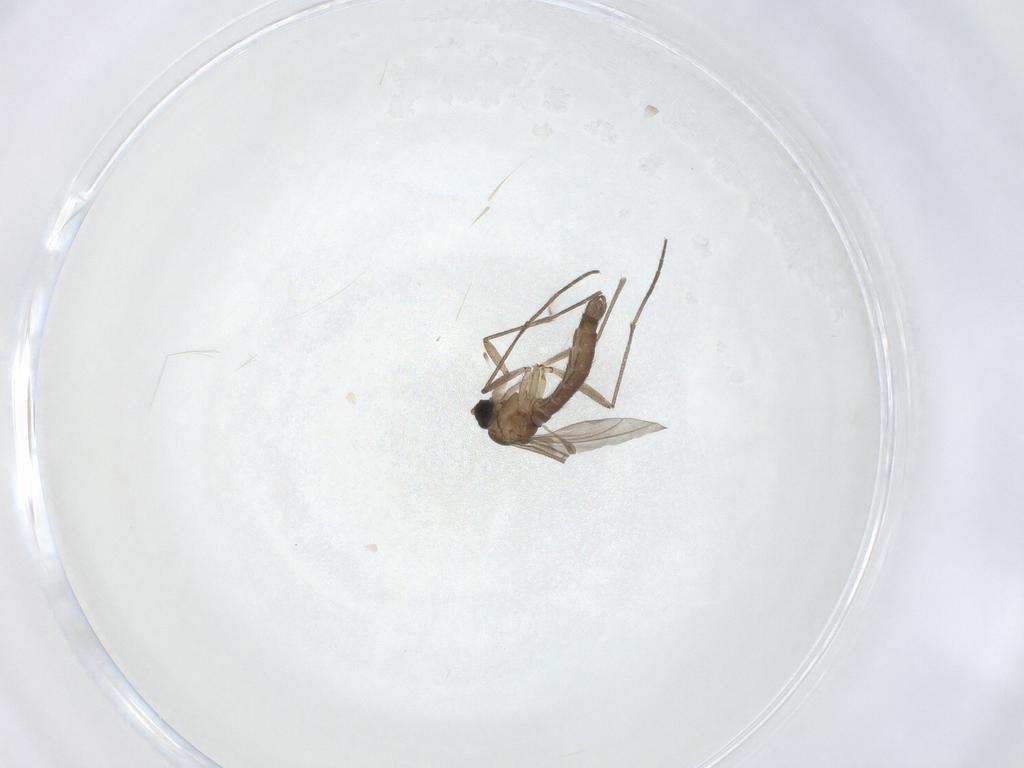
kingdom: Animalia
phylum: Arthropoda
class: Insecta
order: Diptera
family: Sciaridae
